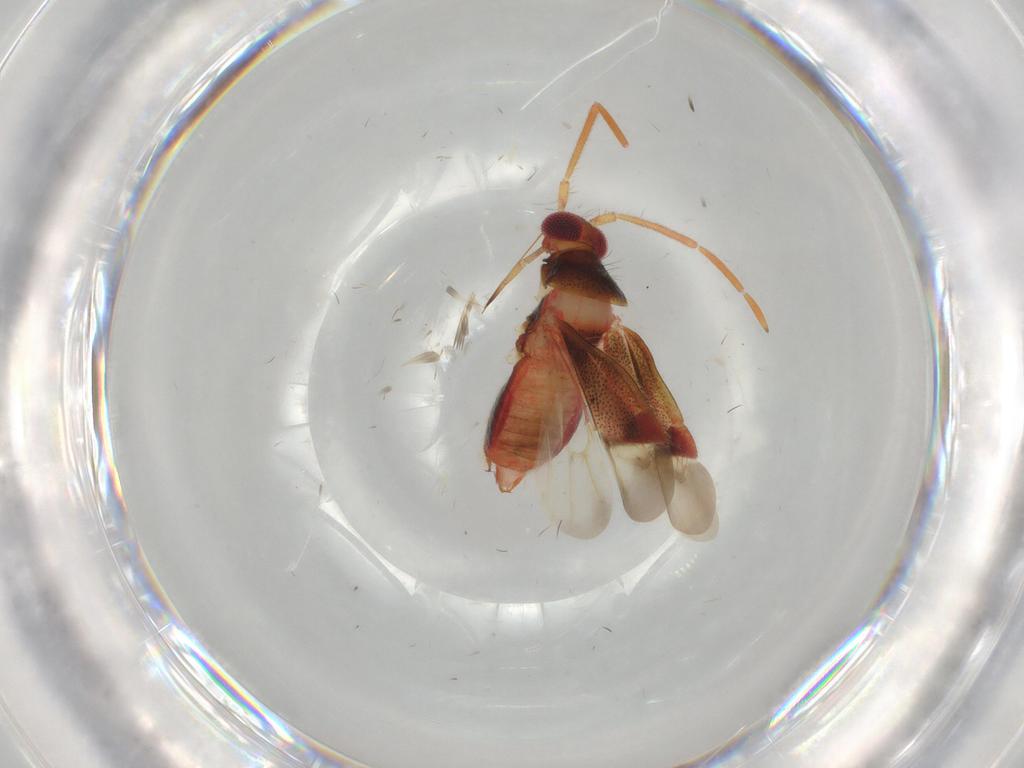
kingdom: Animalia
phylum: Arthropoda
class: Insecta
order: Hemiptera
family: Miridae
